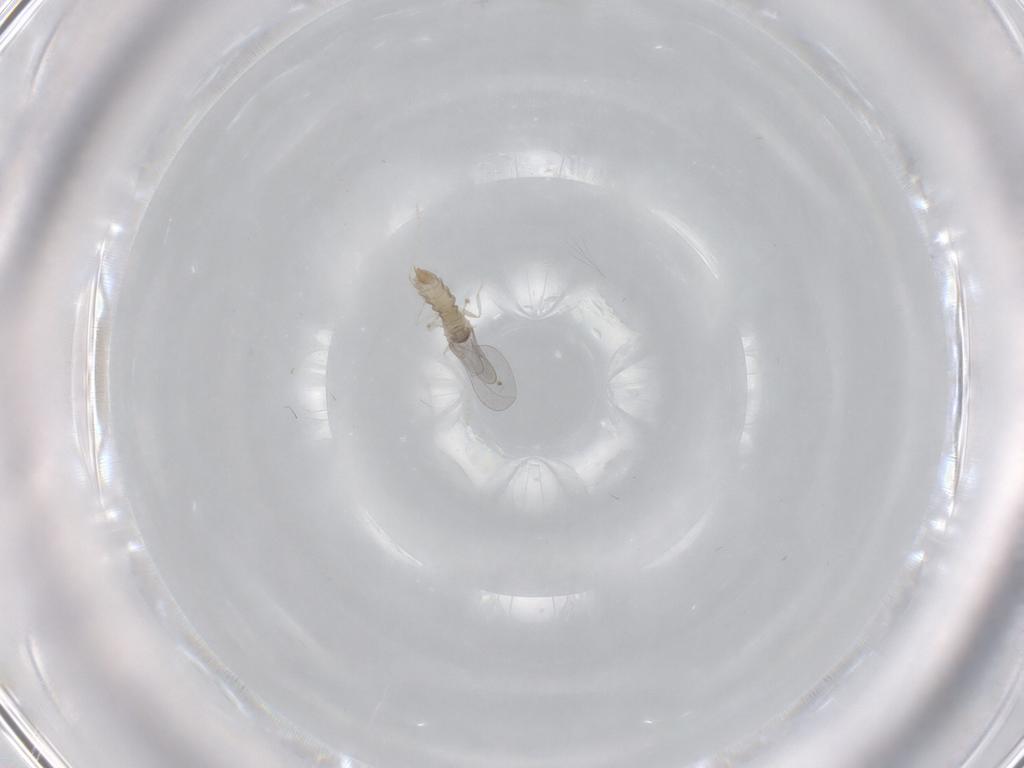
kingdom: Animalia
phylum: Arthropoda
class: Insecta
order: Diptera
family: Cecidomyiidae
